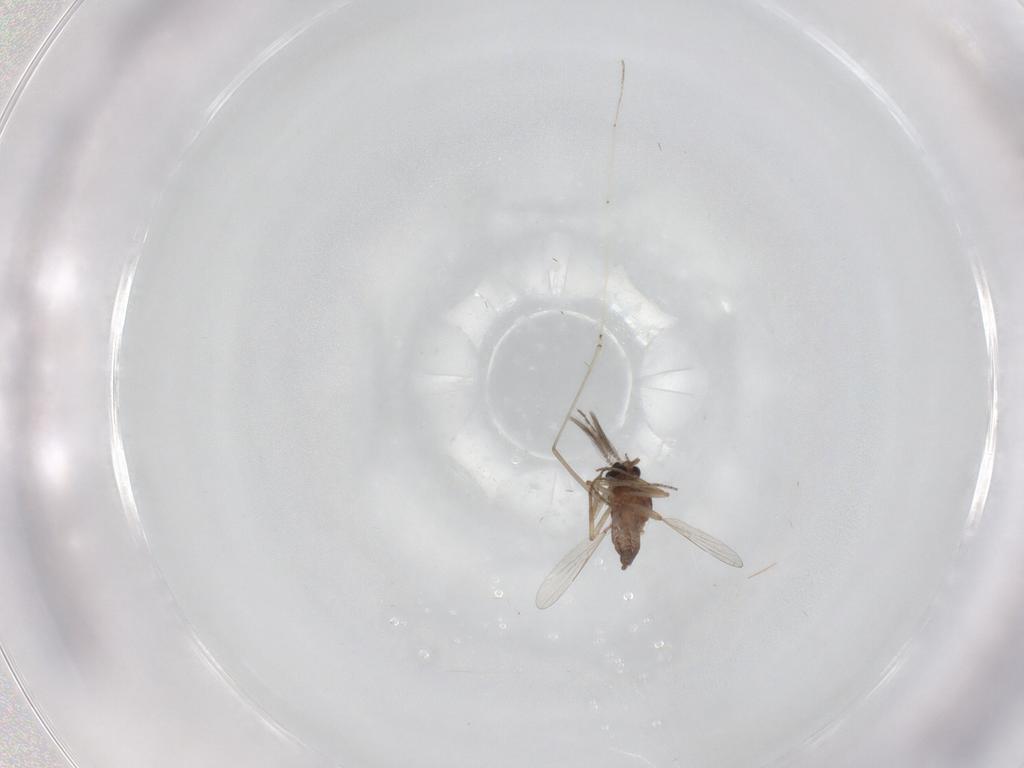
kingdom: Animalia
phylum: Arthropoda
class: Insecta
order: Diptera
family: Ceratopogonidae
